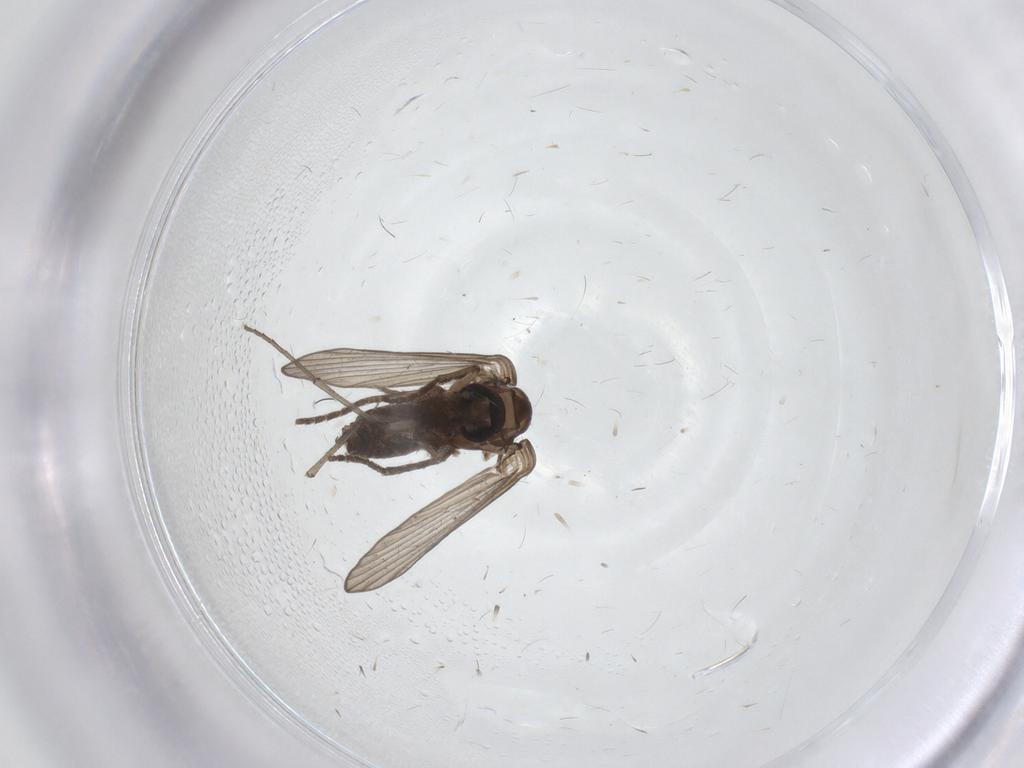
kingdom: Animalia
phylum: Arthropoda
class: Insecta
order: Diptera
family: Psychodidae
